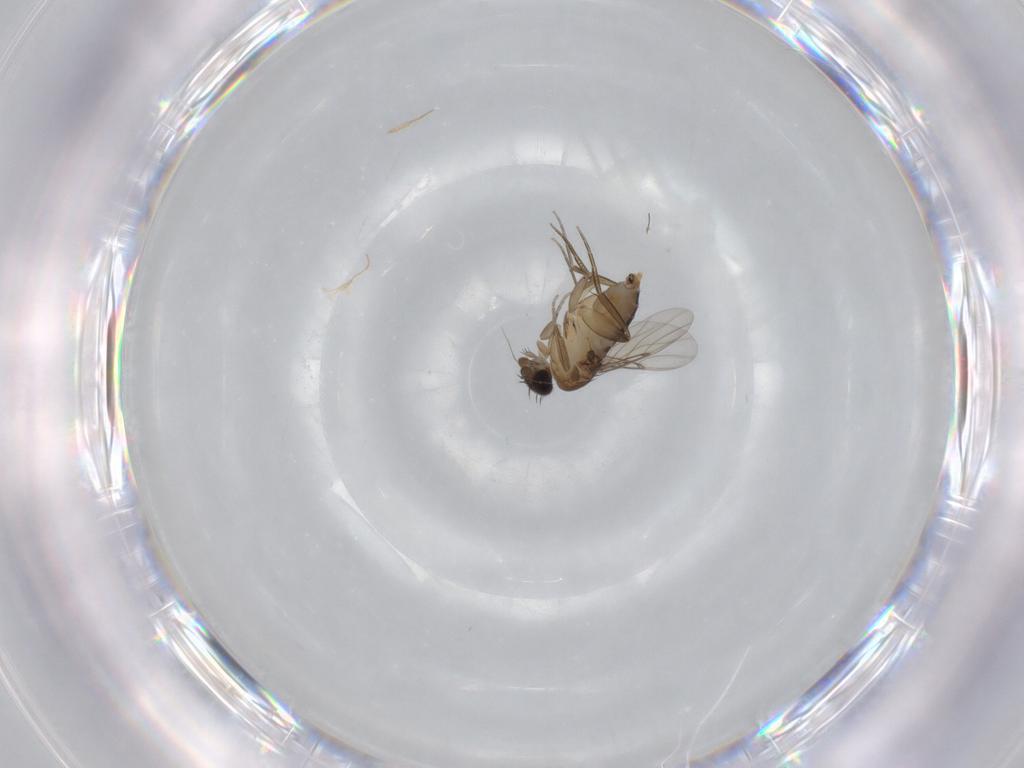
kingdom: Animalia
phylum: Arthropoda
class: Insecta
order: Diptera
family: Phoridae
